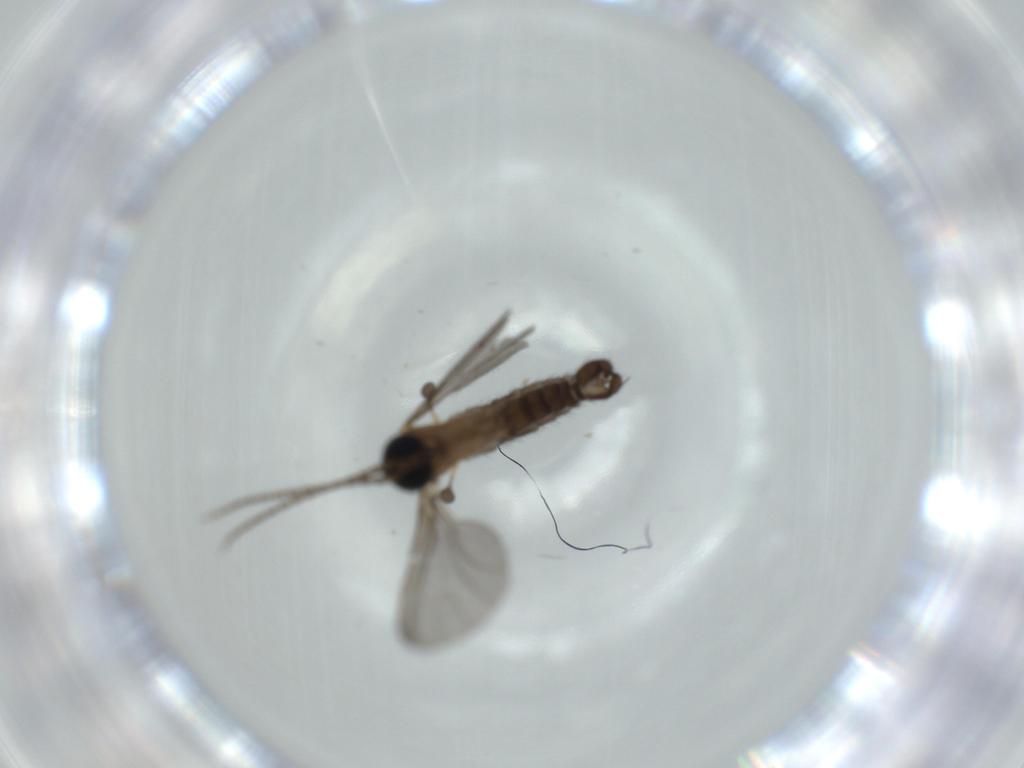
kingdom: Animalia
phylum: Arthropoda
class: Insecta
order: Diptera
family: Sciaridae
